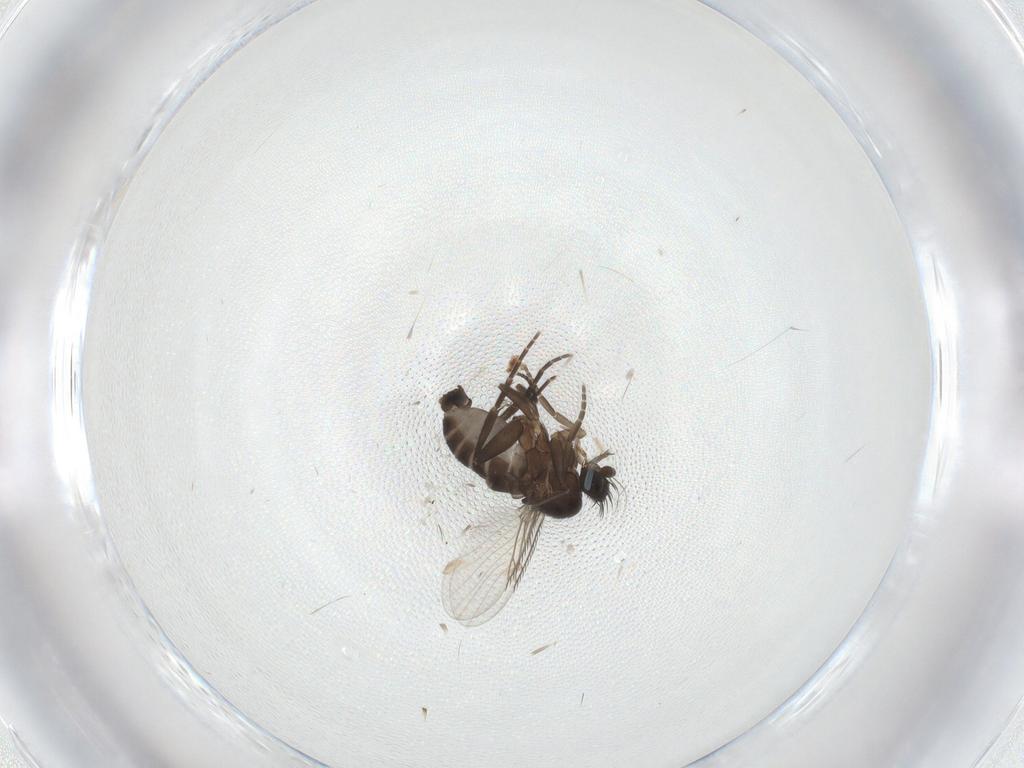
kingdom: Animalia
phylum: Arthropoda
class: Insecta
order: Diptera
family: Phoridae
